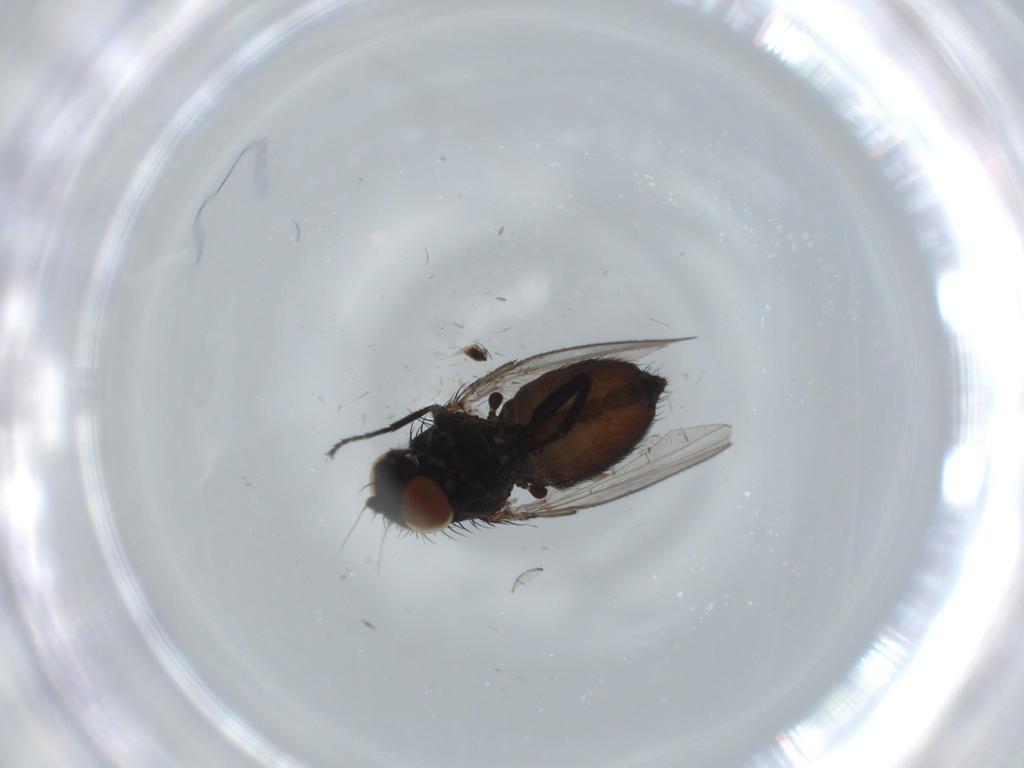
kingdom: Animalia
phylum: Arthropoda
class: Insecta
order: Diptera
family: Milichiidae
